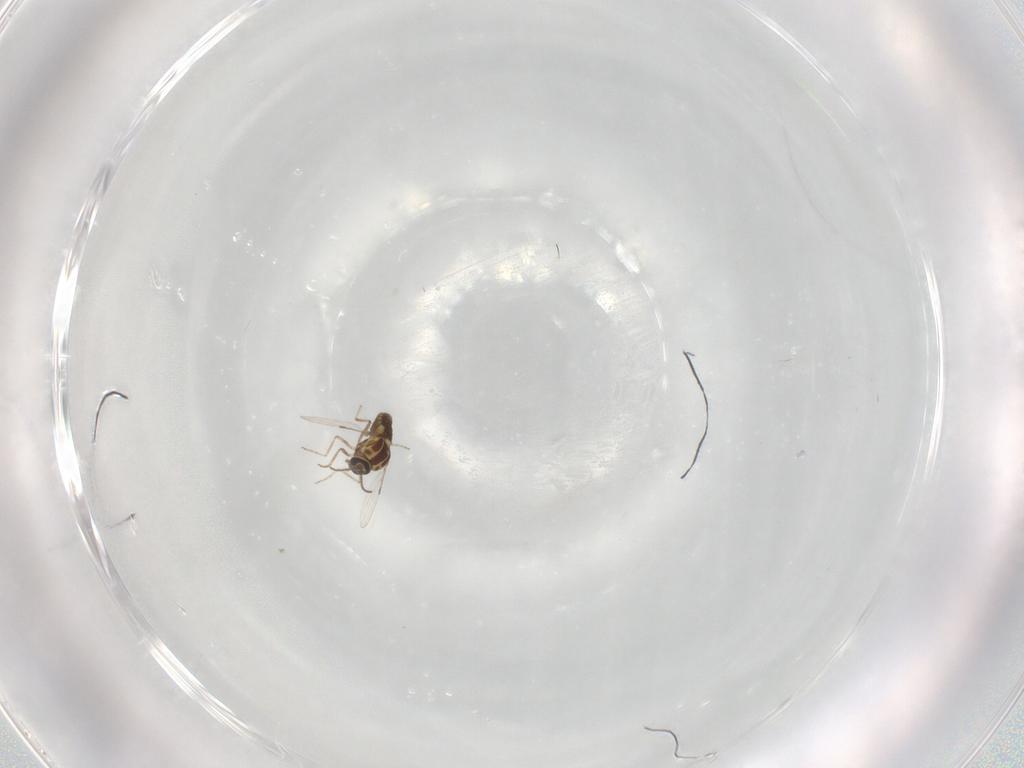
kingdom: Animalia
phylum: Arthropoda
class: Insecta
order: Diptera
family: Ceratopogonidae
